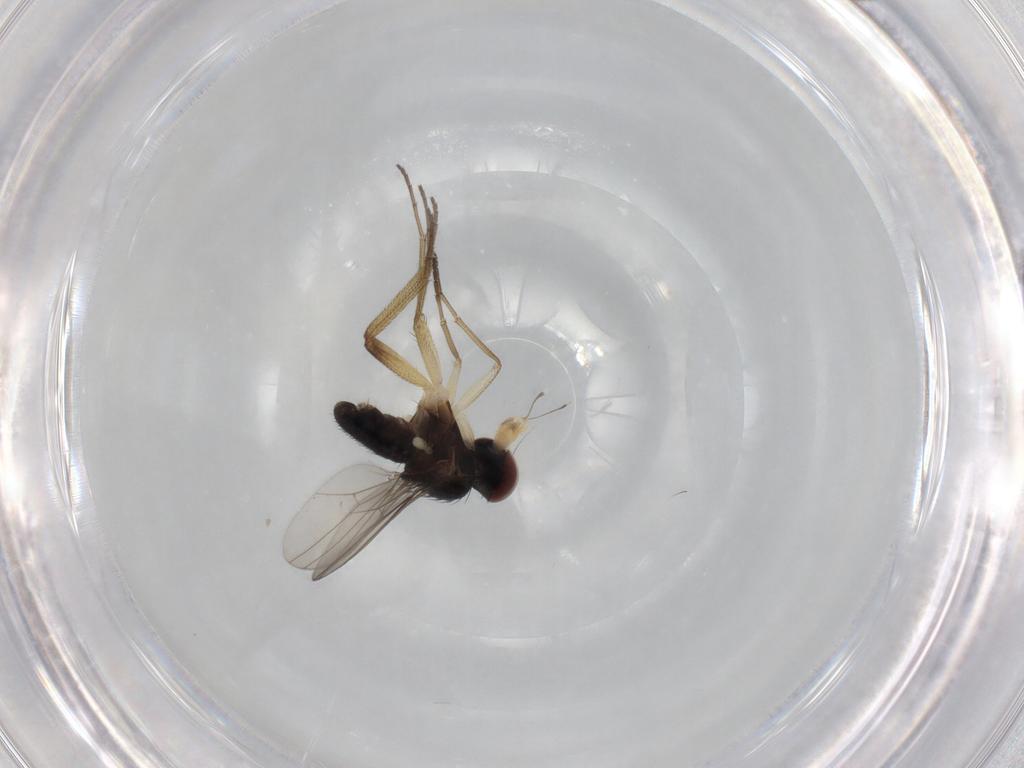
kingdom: Animalia
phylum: Arthropoda
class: Insecta
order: Diptera
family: Dolichopodidae
